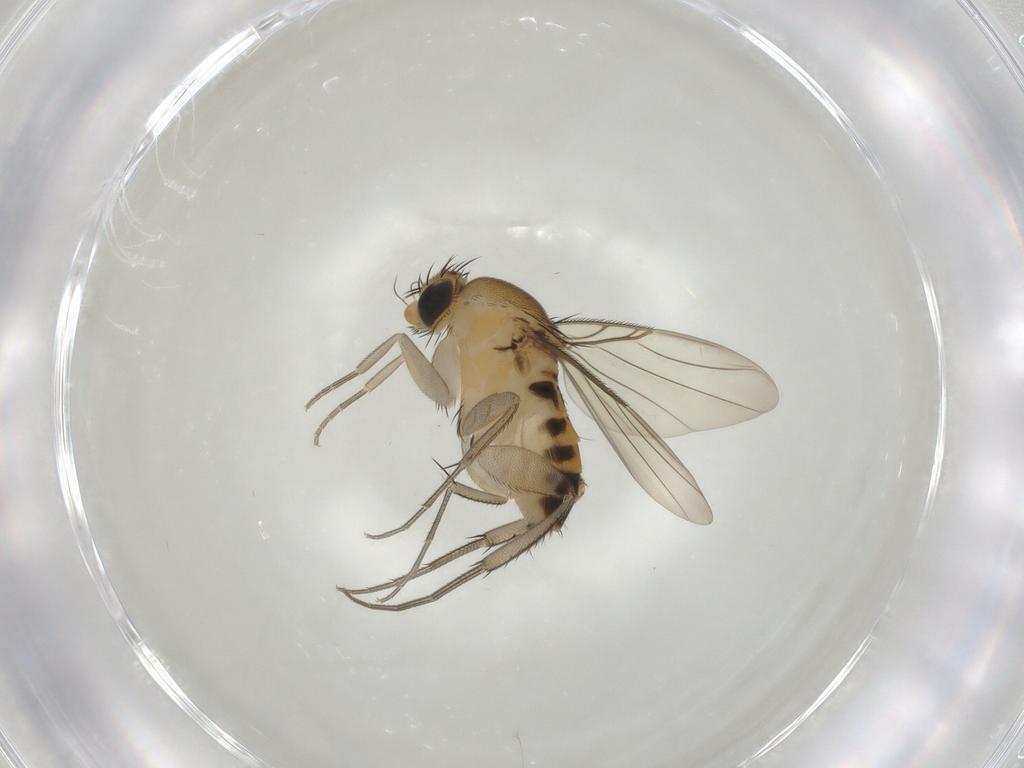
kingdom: Animalia
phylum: Arthropoda
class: Insecta
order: Diptera
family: Phoridae
